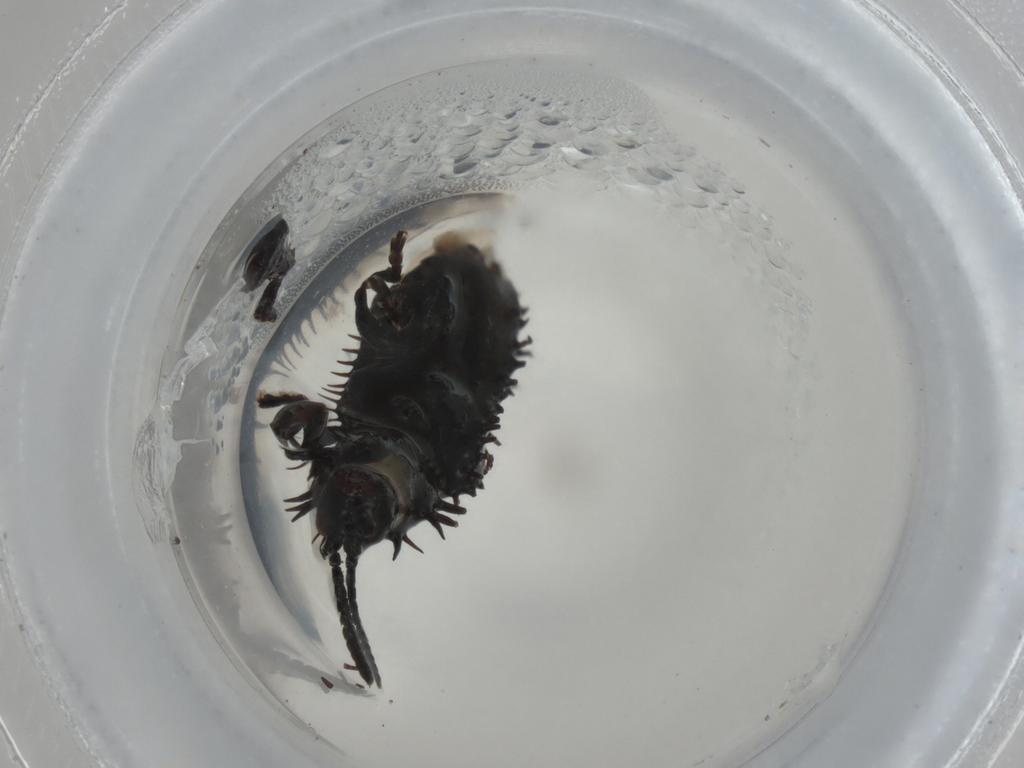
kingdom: Animalia
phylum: Arthropoda
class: Insecta
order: Coleoptera
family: Chrysomelidae
